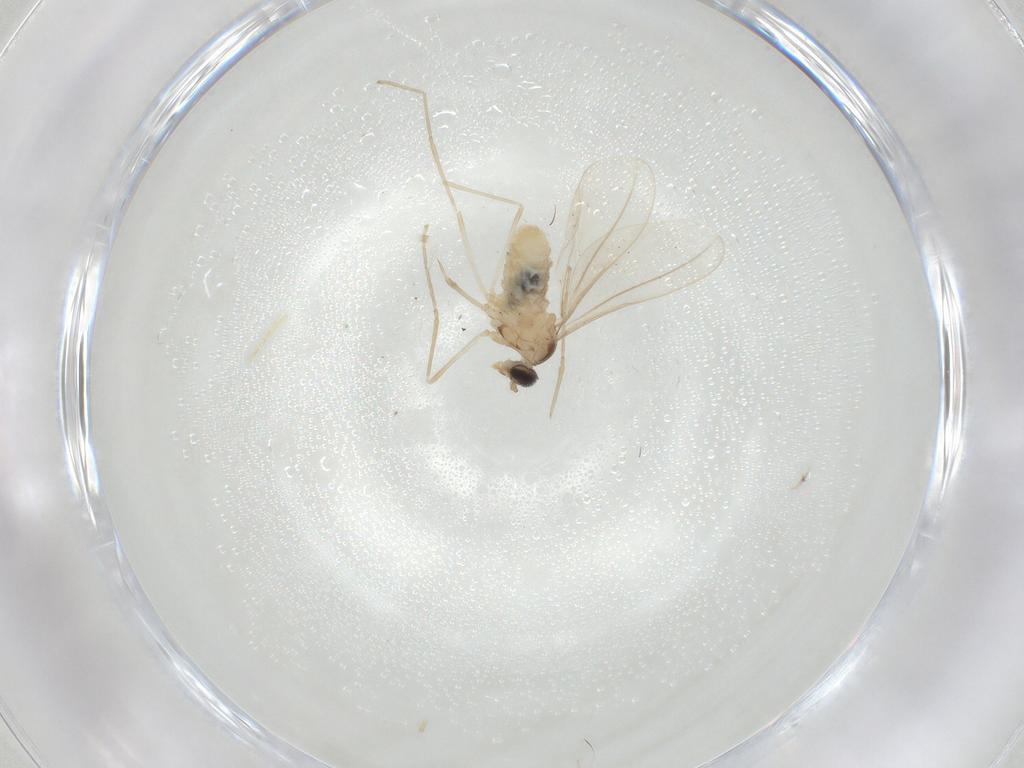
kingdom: Animalia
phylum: Arthropoda
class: Insecta
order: Diptera
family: Cecidomyiidae
